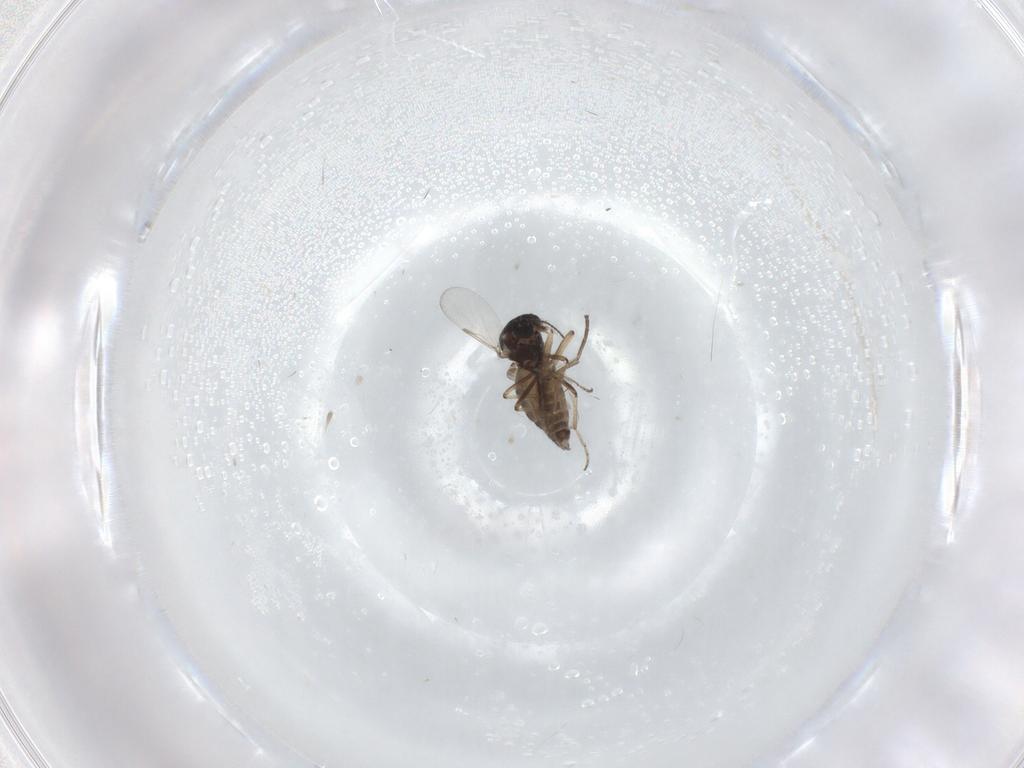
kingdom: Animalia
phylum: Arthropoda
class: Insecta
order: Diptera
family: Ceratopogonidae
